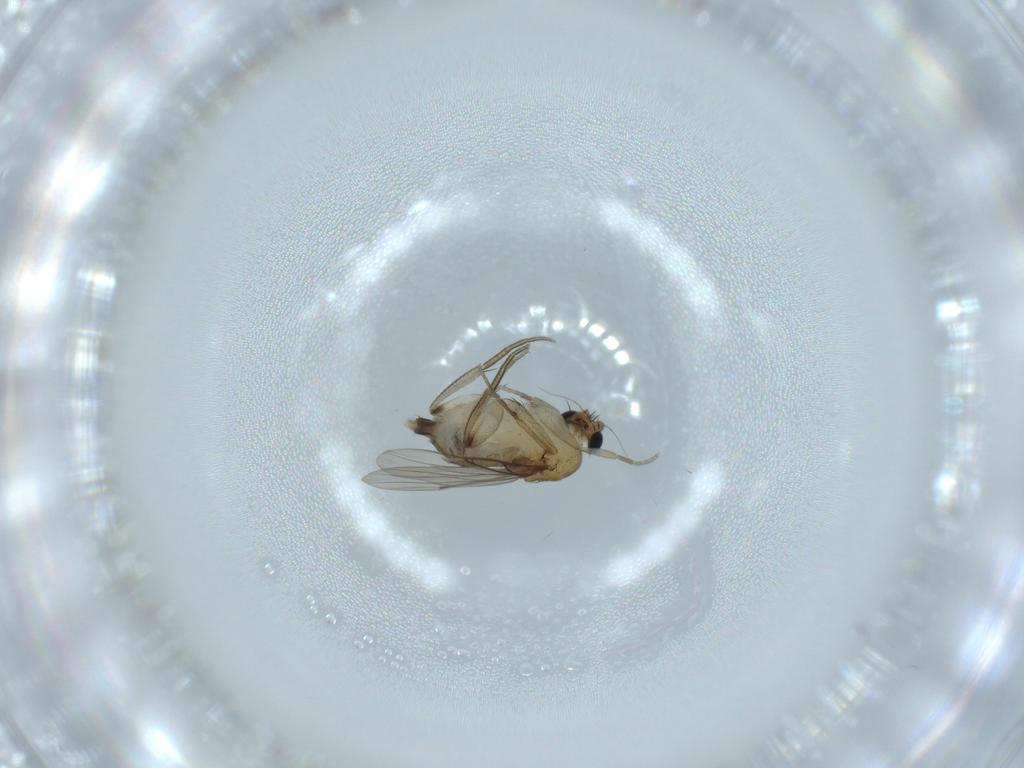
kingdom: Animalia
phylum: Arthropoda
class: Insecta
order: Diptera
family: Phoridae
